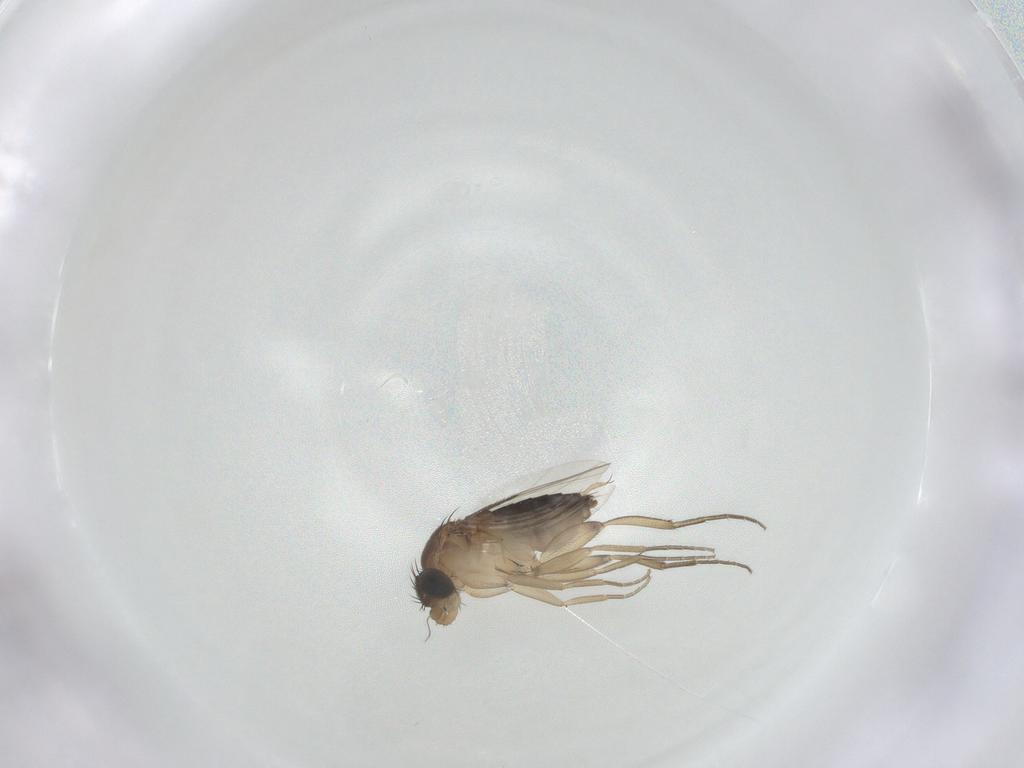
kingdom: Animalia
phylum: Arthropoda
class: Insecta
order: Diptera
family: Phoridae
